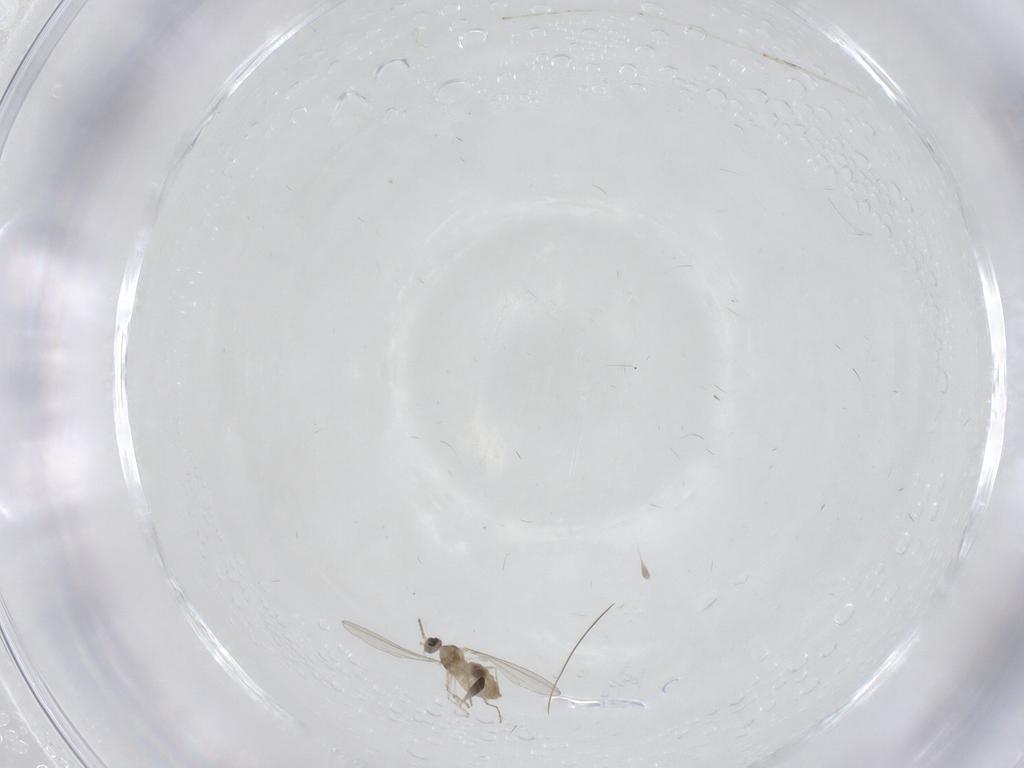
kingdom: Animalia
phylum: Arthropoda
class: Insecta
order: Diptera
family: Cecidomyiidae
